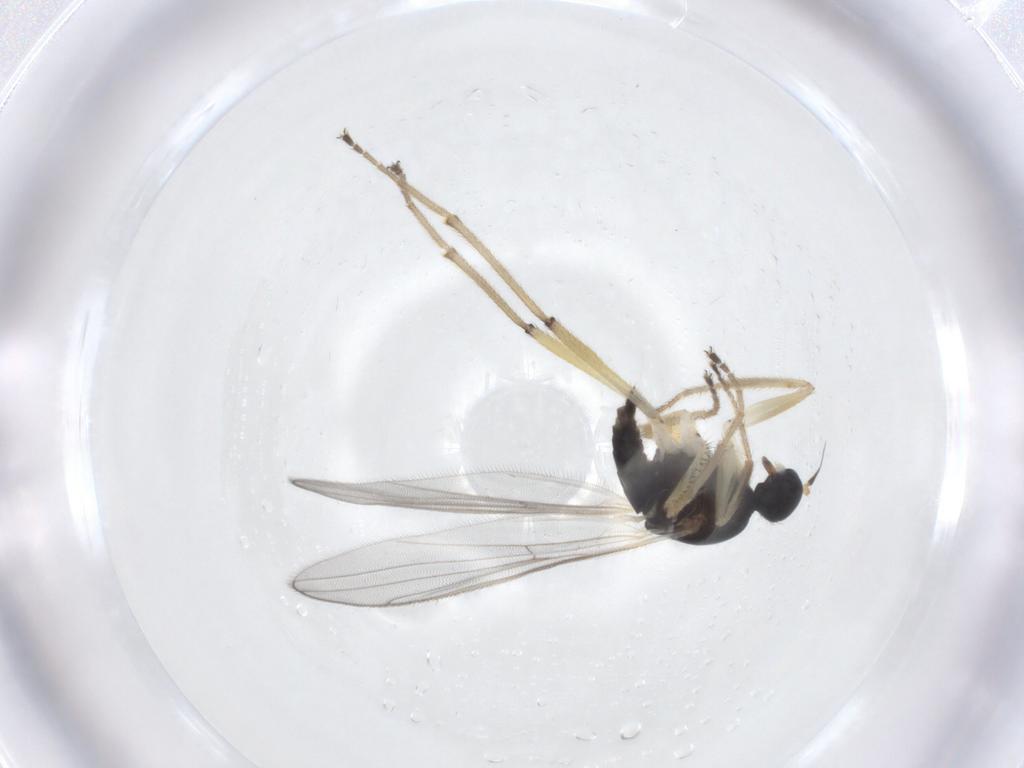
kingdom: Animalia
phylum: Arthropoda
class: Insecta
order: Diptera
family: Hybotidae
